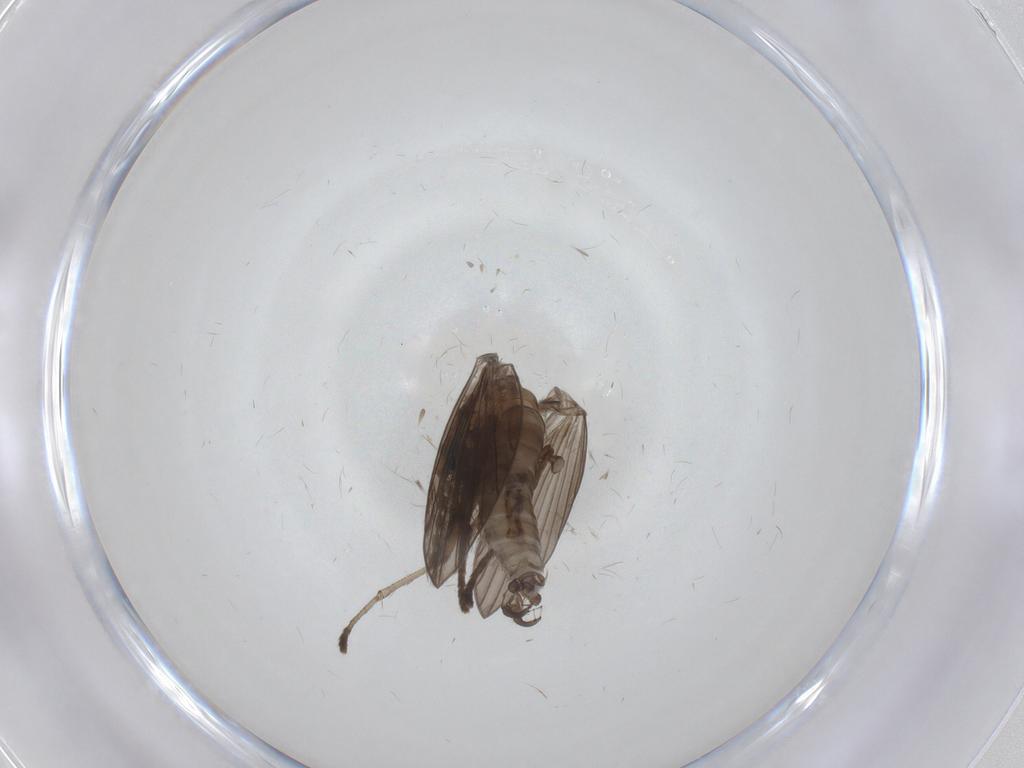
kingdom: Animalia
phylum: Arthropoda
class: Insecta
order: Diptera
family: Psychodidae
